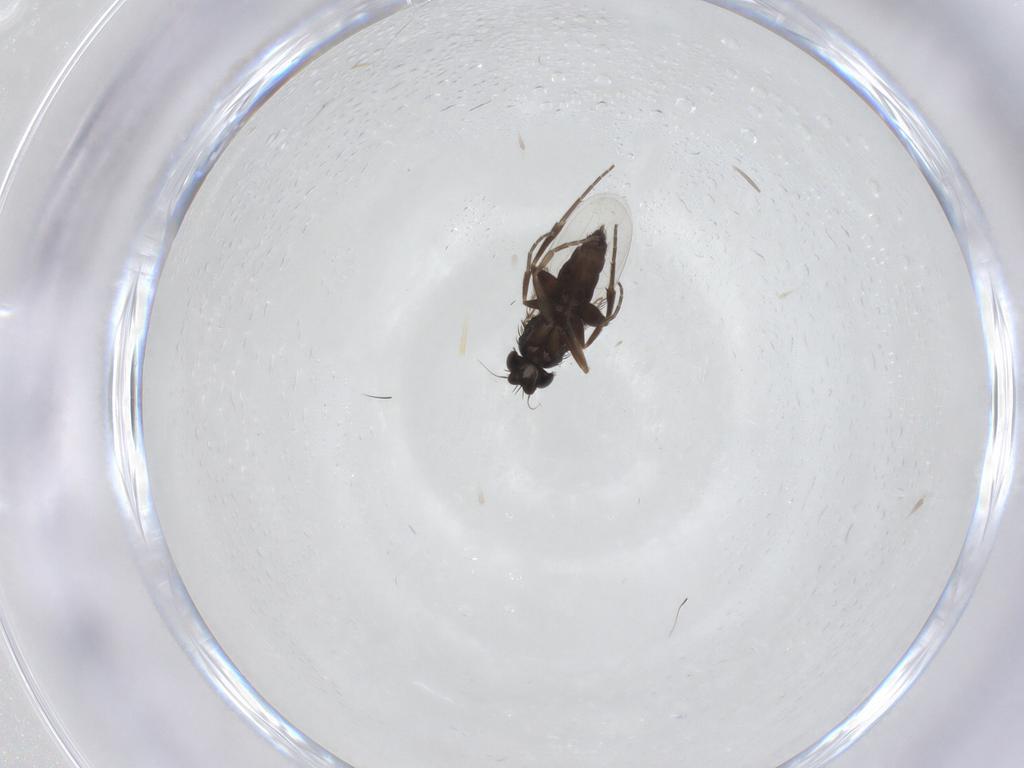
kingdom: Animalia
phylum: Arthropoda
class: Insecta
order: Diptera
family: Phoridae
